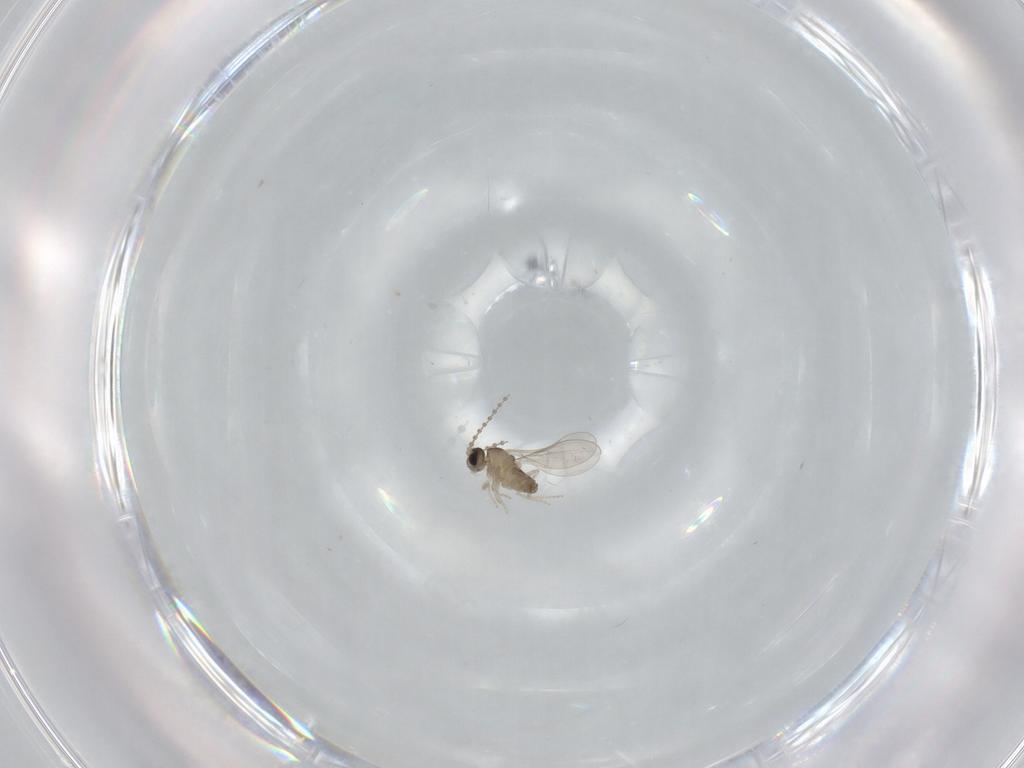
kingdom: Animalia
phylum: Arthropoda
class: Insecta
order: Diptera
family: Cecidomyiidae
